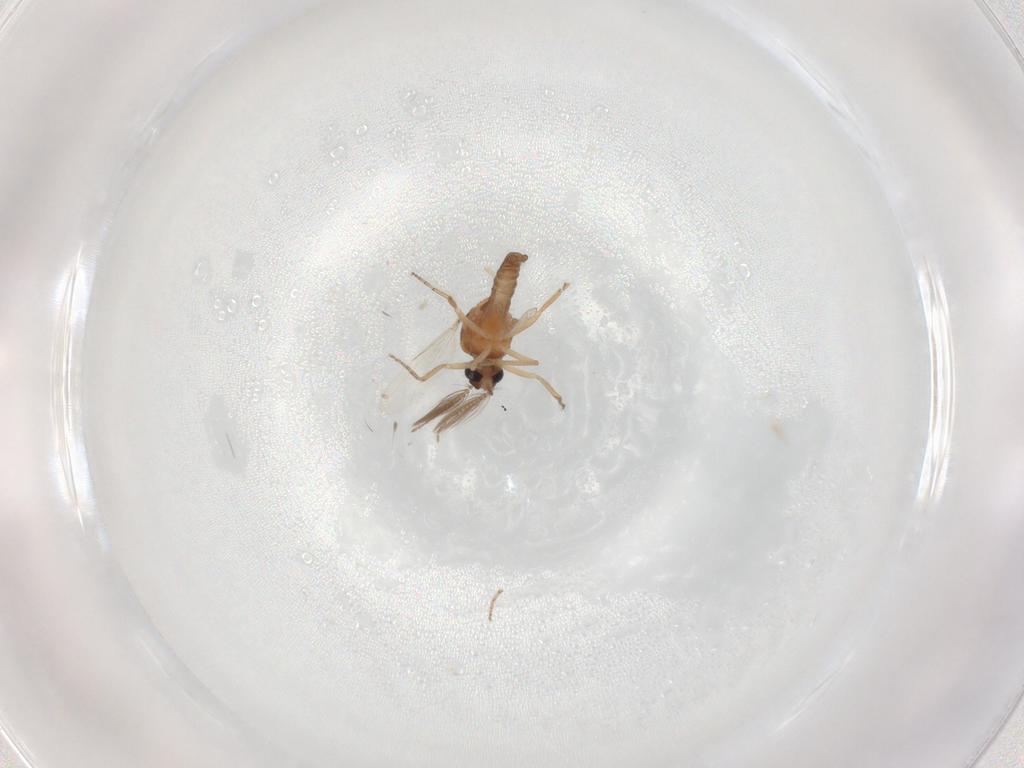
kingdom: Animalia
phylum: Arthropoda
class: Insecta
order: Diptera
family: Ceratopogonidae
